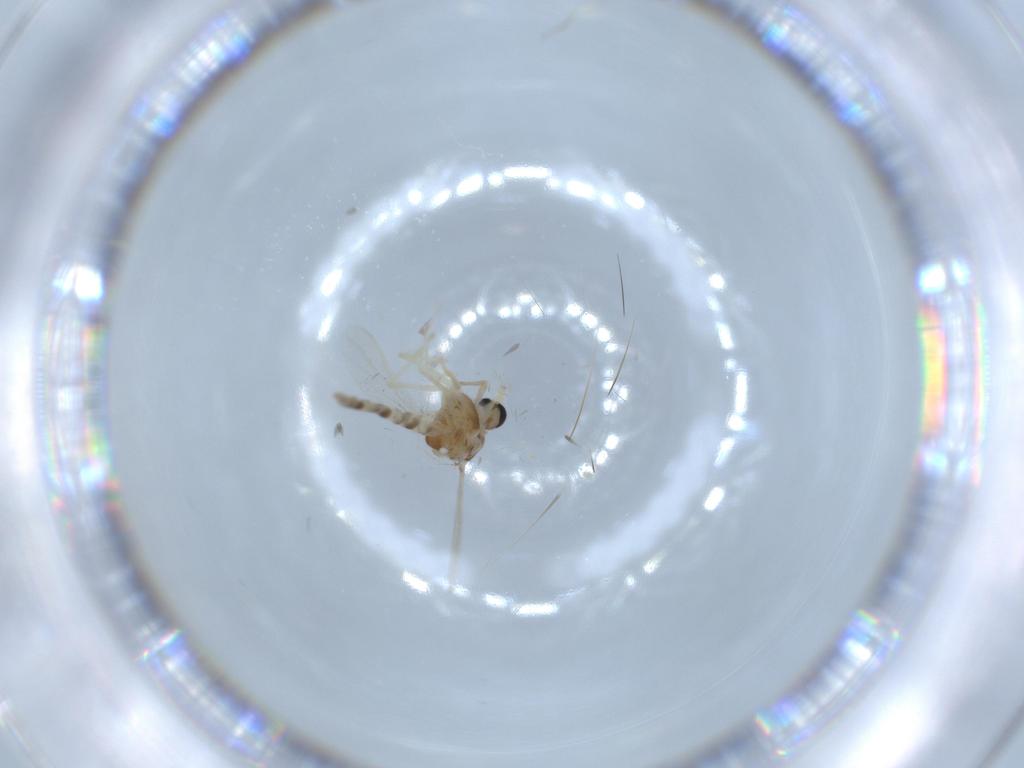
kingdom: Animalia
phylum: Arthropoda
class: Insecta
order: Diptera
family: Chironomidae
